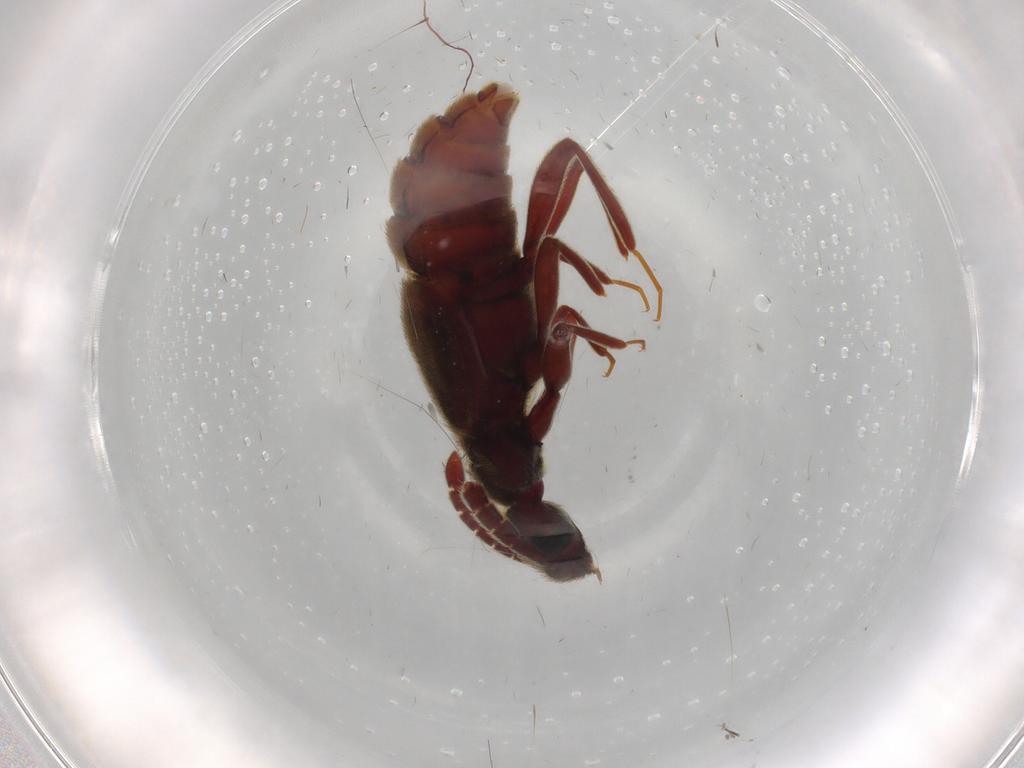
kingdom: Animalia
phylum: Arthropoda
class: Insecta
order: Coleoptera
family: Staphylinidae
